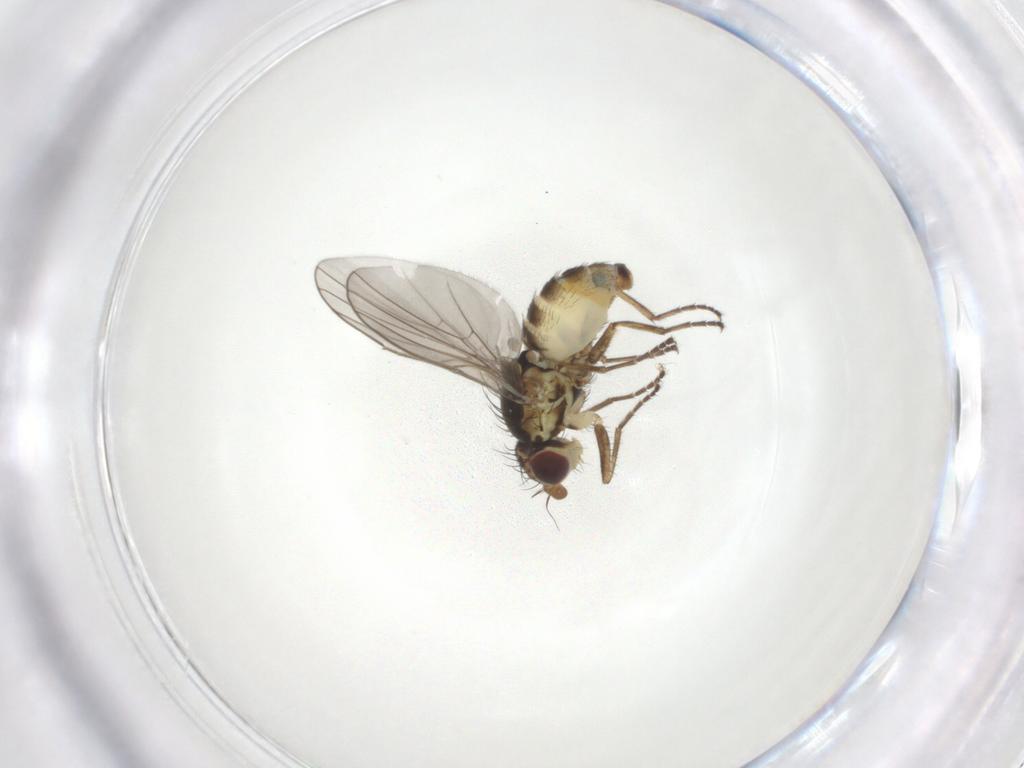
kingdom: Animalia
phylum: Arthropoda
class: Insecta
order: Diptera
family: Agromyzidae
